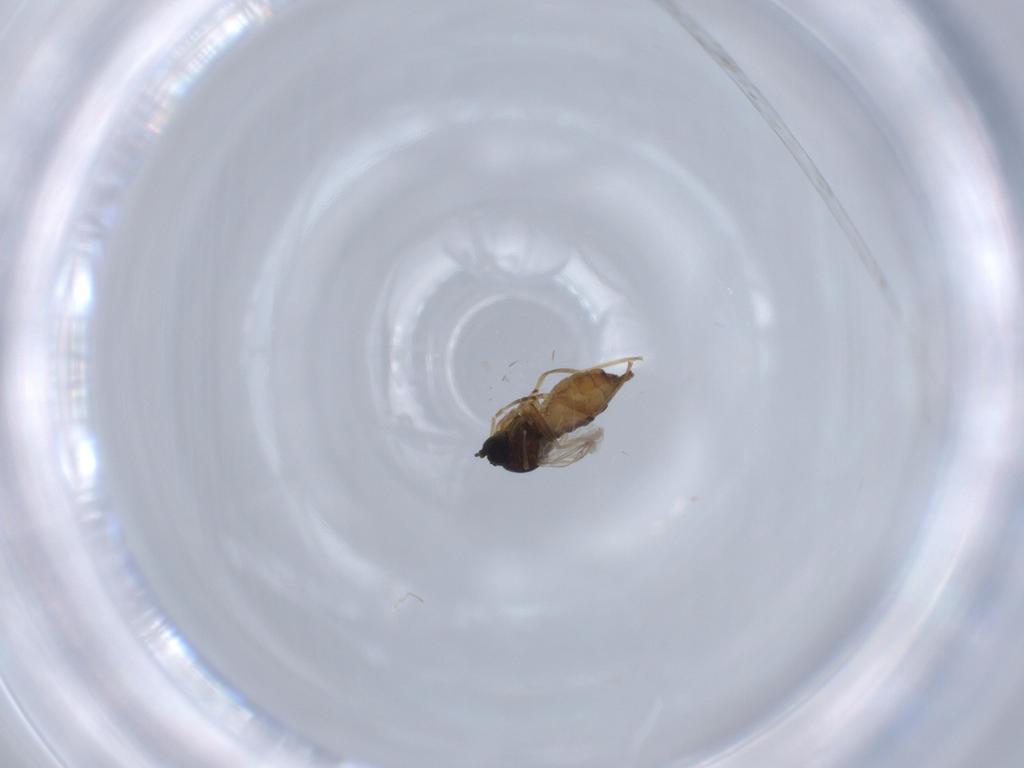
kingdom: Animalia
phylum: Arthropoda
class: Insecta
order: Diptera
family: Sciaridae
